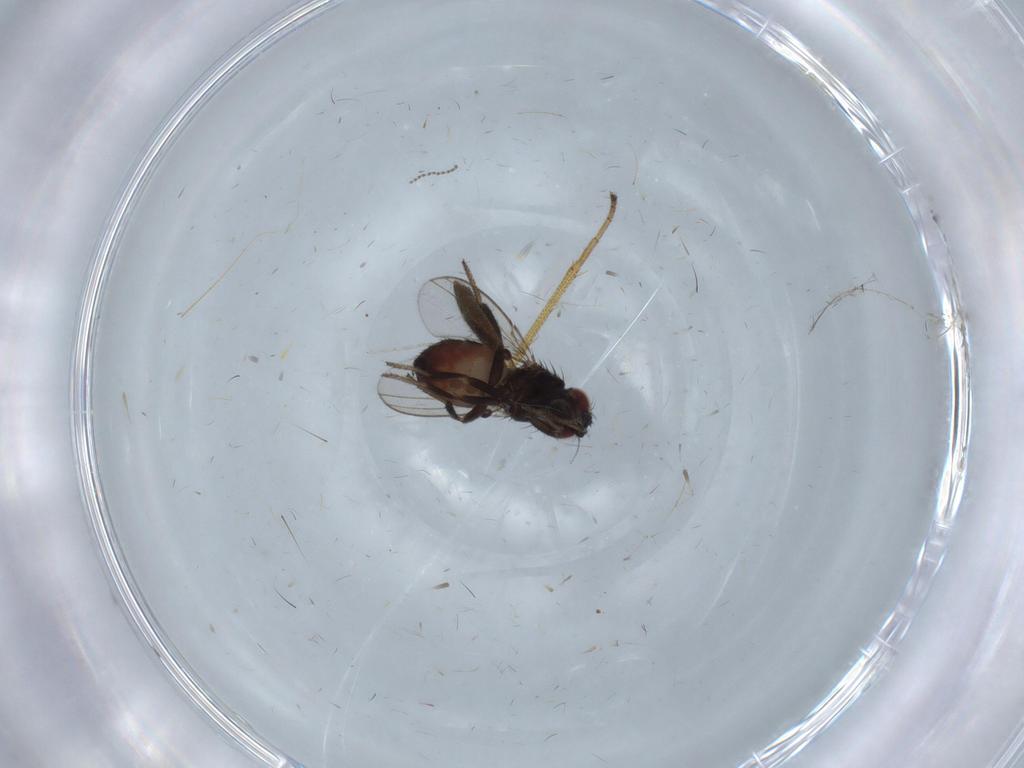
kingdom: Animalia
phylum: Arthropoda
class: Insecta
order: Diptera
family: Milichiidae
